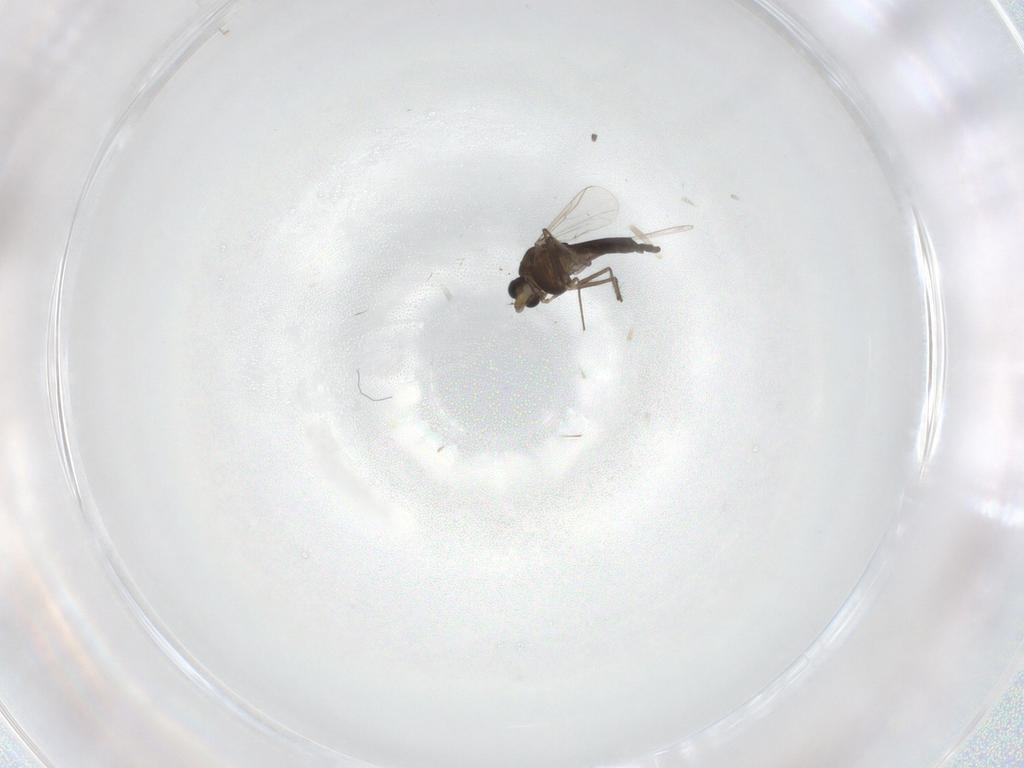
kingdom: Animalia
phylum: Arthropoda
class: Insecta
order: Diptera
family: Chironomidae
